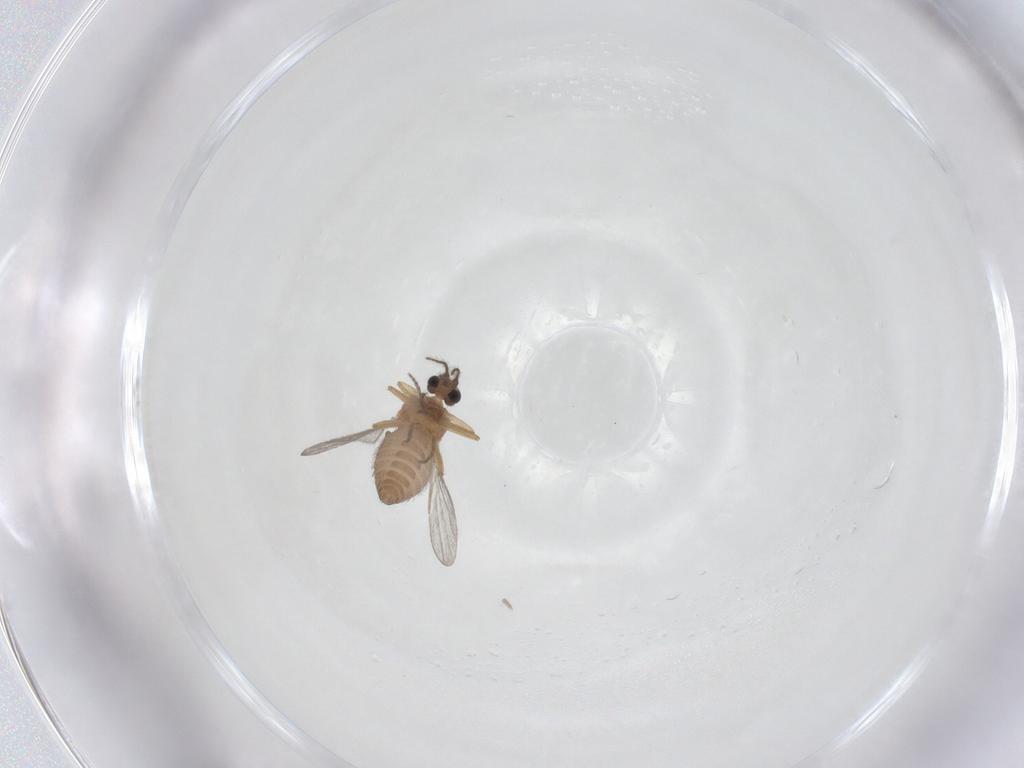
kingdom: Animalia
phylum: Arthropoda
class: Insecta
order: Diptera
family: Ceratopogonidae
